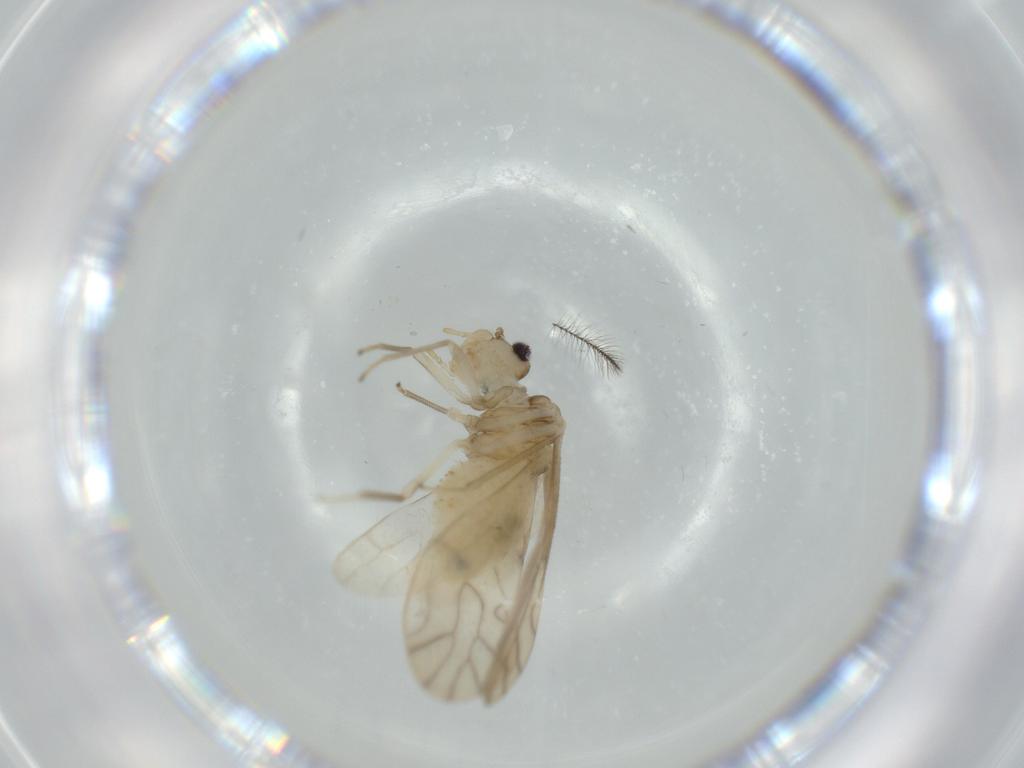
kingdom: Animalia
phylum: Arthropoda
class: Insecta
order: Psocodea
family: Caeciliusidae
